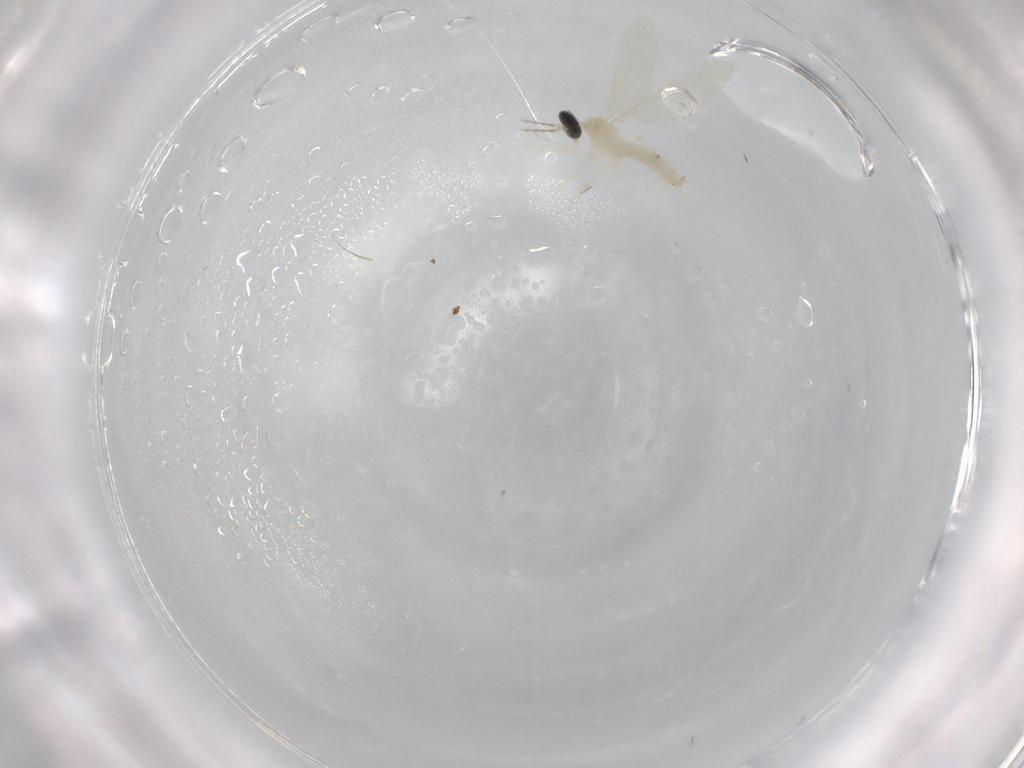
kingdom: Animalia
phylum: Arthropoda
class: Insecta
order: Diptera
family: Cecidomyiidae
